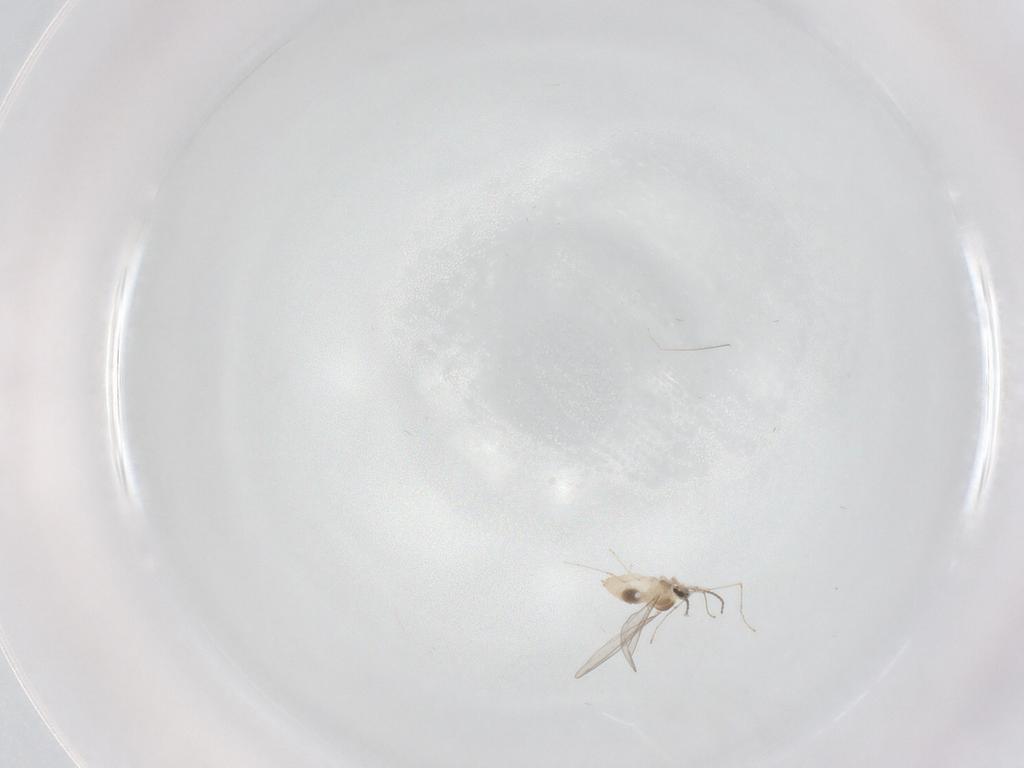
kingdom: Animalia
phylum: Arthropoda
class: Insecta
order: Diptera
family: Cecidomyiidae
